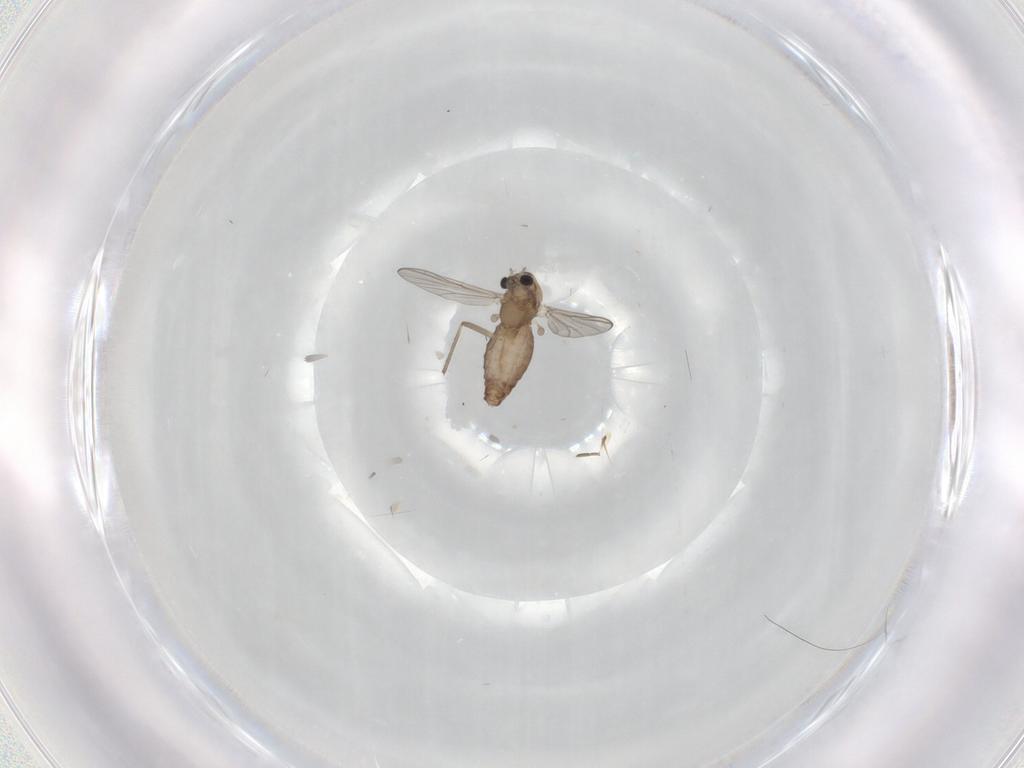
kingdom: Animalia
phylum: Arthropoda
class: Insecta
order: Diptera
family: Chironomidae
